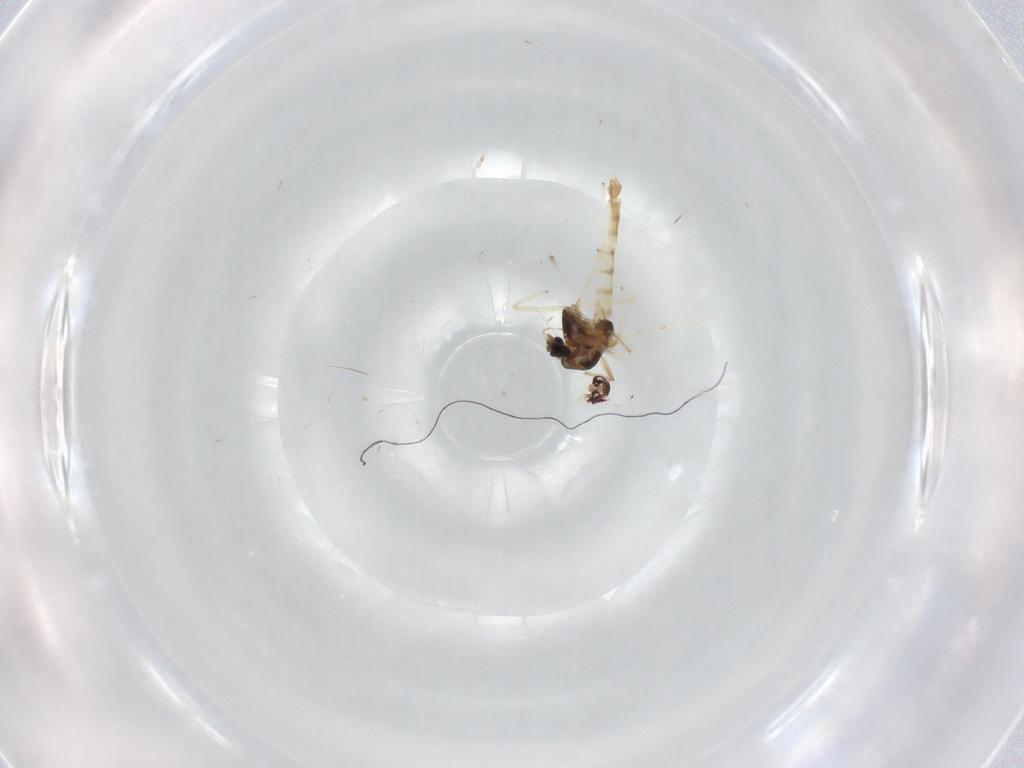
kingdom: Animalia
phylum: Arthropoda
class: Insecta
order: Diptera
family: Chironomidae
